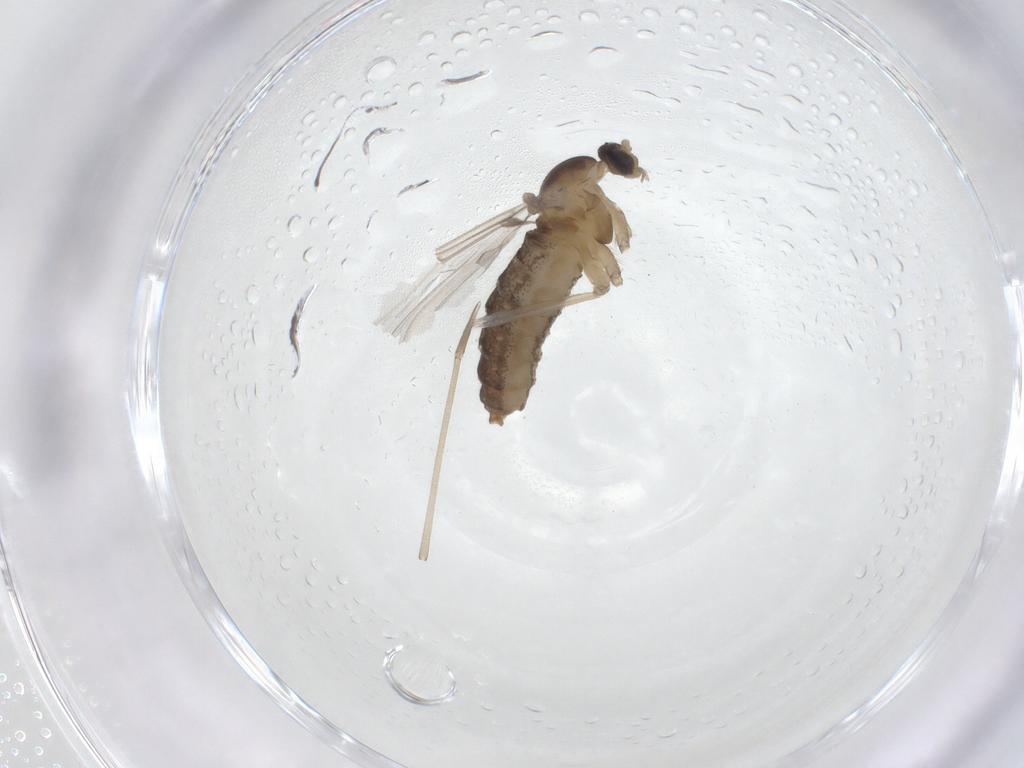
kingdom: Animalia
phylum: Arthropoda
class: Insecta
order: Diptera
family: Cecidomyiidae
